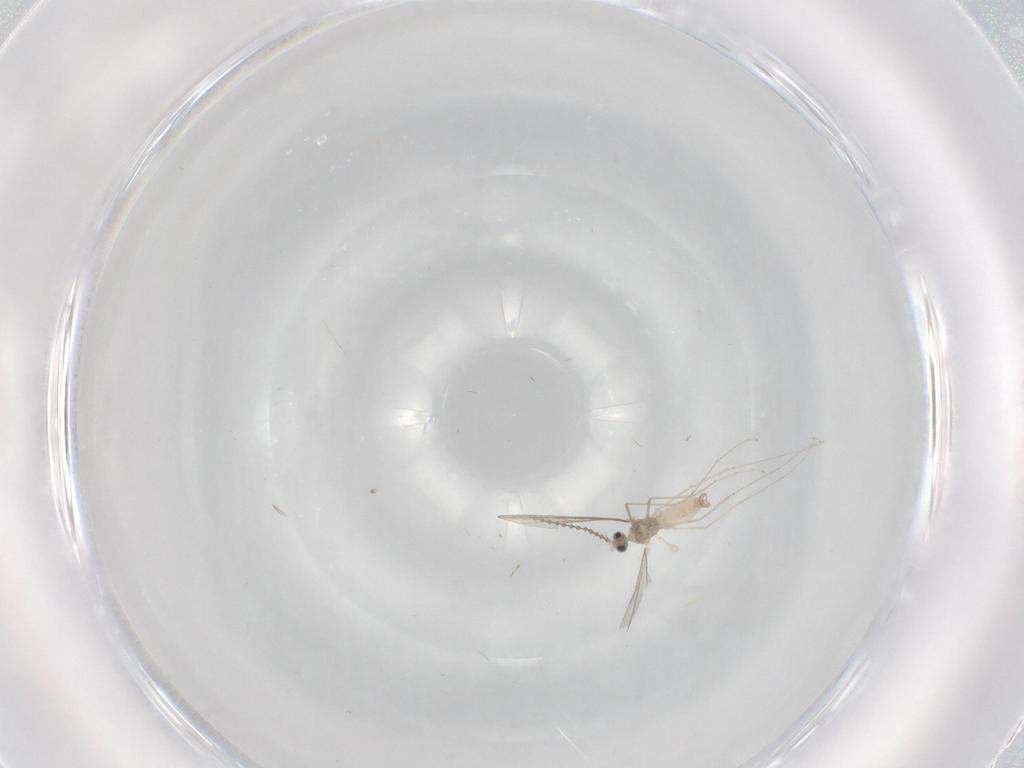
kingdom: Animalia
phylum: Arthropoda
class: Insecta
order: Diptera
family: Cecidomyiidae
